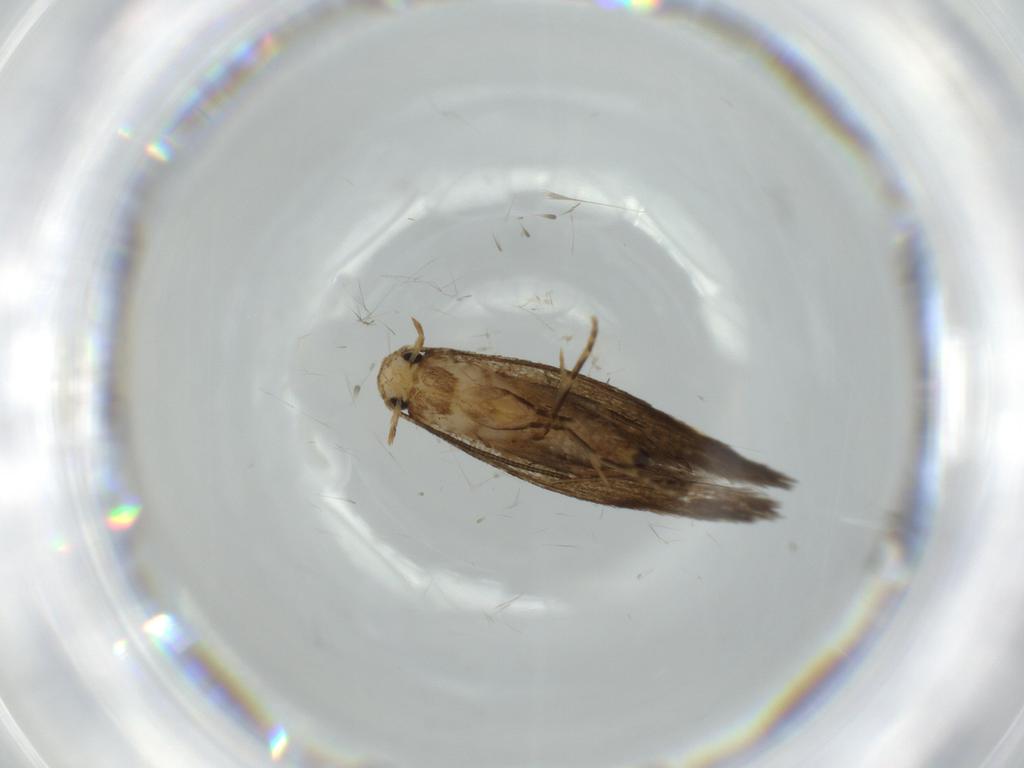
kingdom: Animalia
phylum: Arthropoda
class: Insecta
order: Lepidoptera
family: Tineidae
